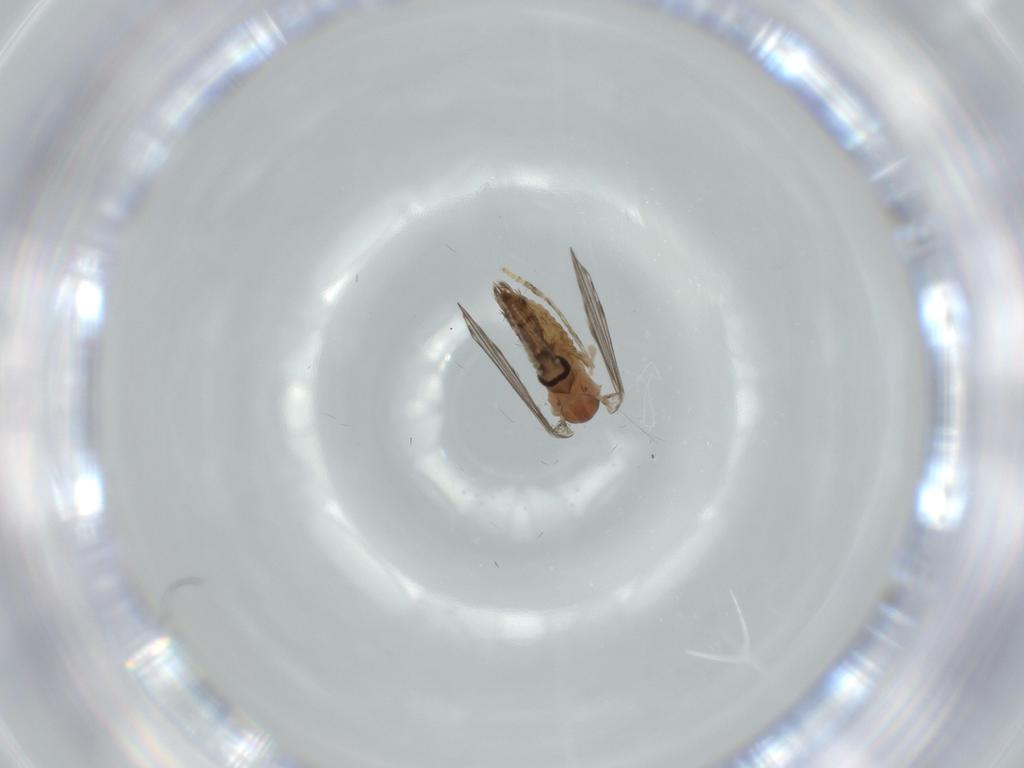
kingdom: Animalia
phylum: Arthropoda
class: Insecta
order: Diptera
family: Psychodidae
